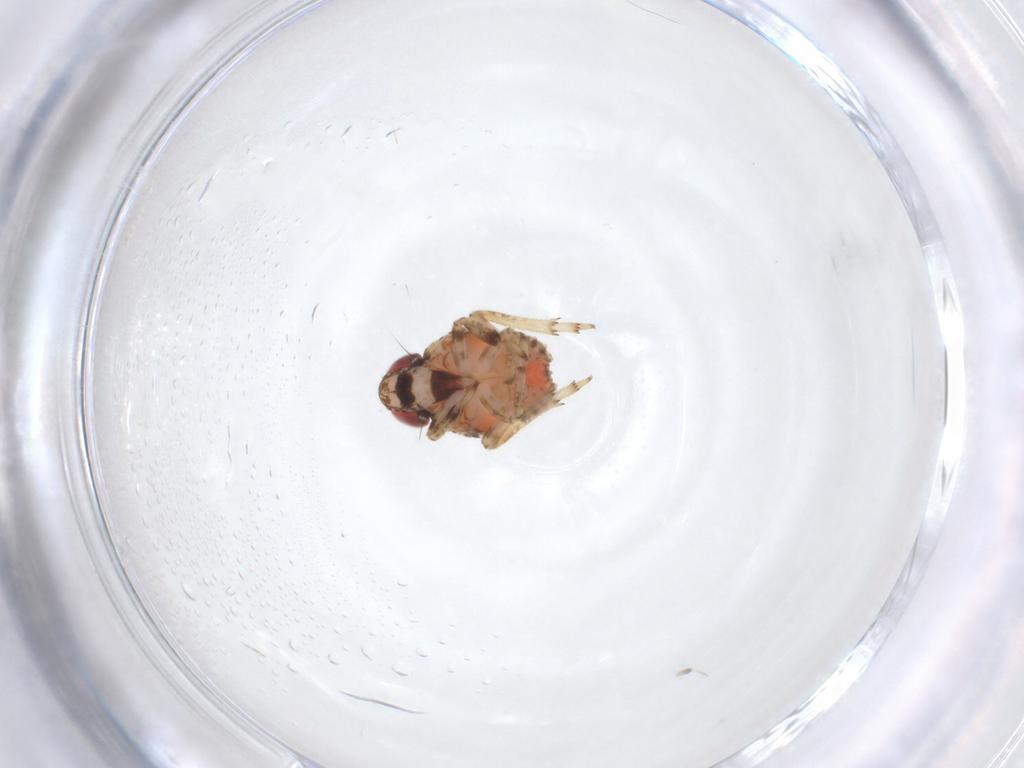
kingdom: Animalia
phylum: Arthropoda
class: Insecta
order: Hemiptera
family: Issidae
